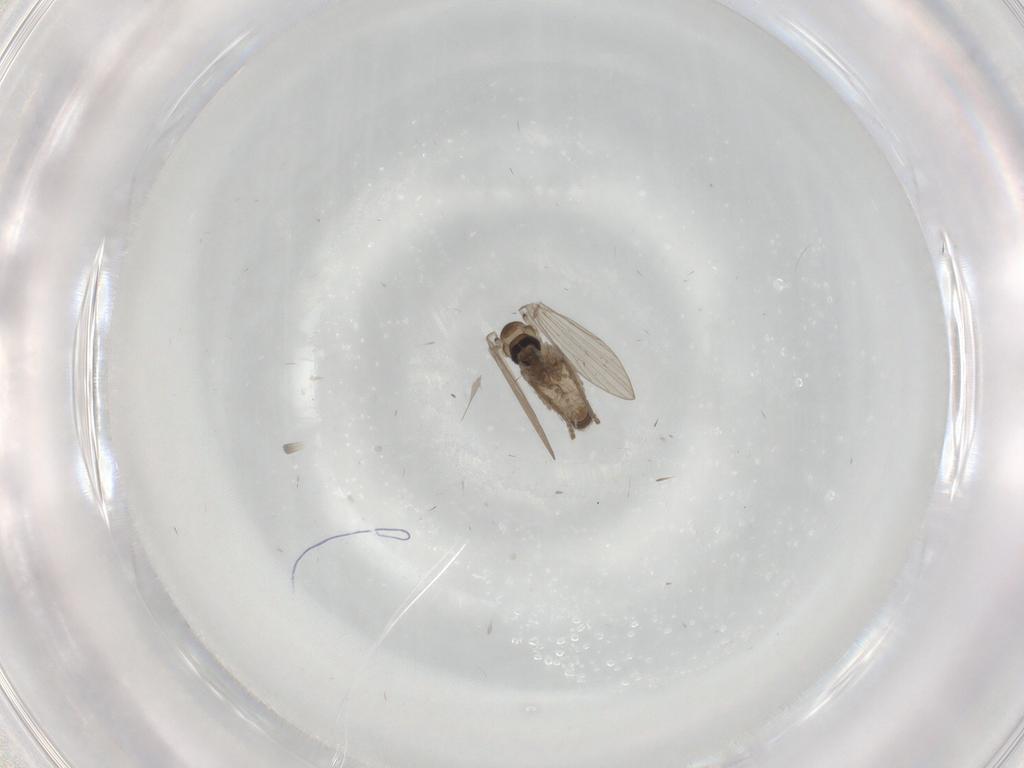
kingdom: Animalia
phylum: Arthropoda
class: Insecta
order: Diptera
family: Psychodidae
